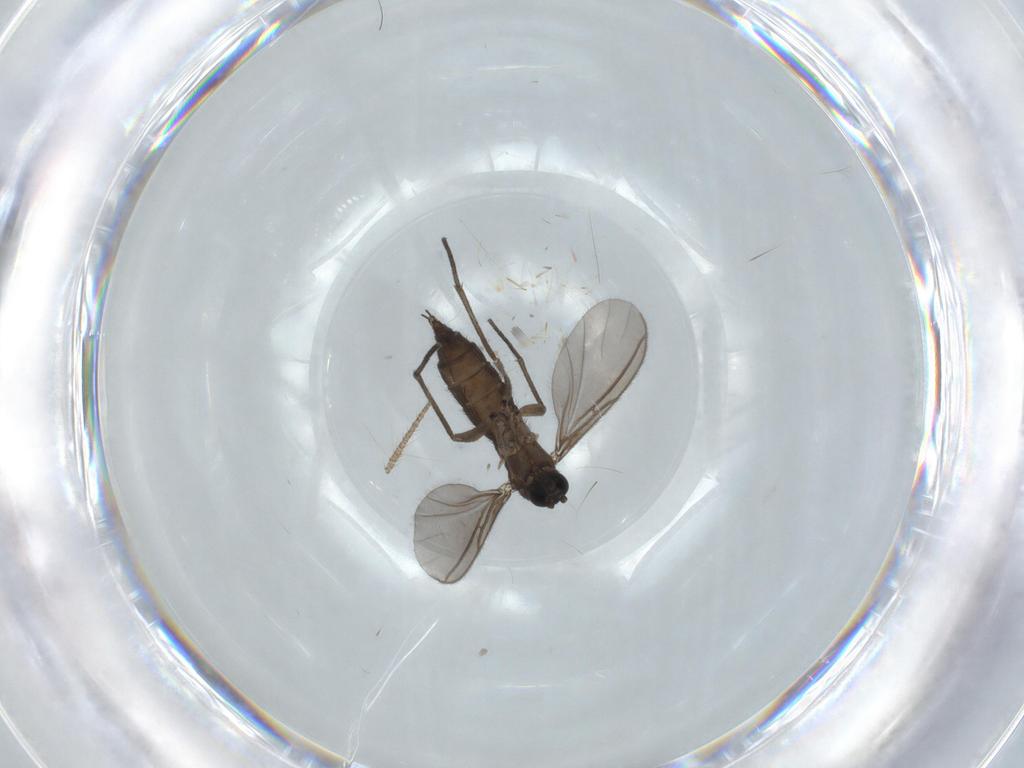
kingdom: Animalia
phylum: Arthropoda
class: Insecta
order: Diptera
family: Sciaridae
